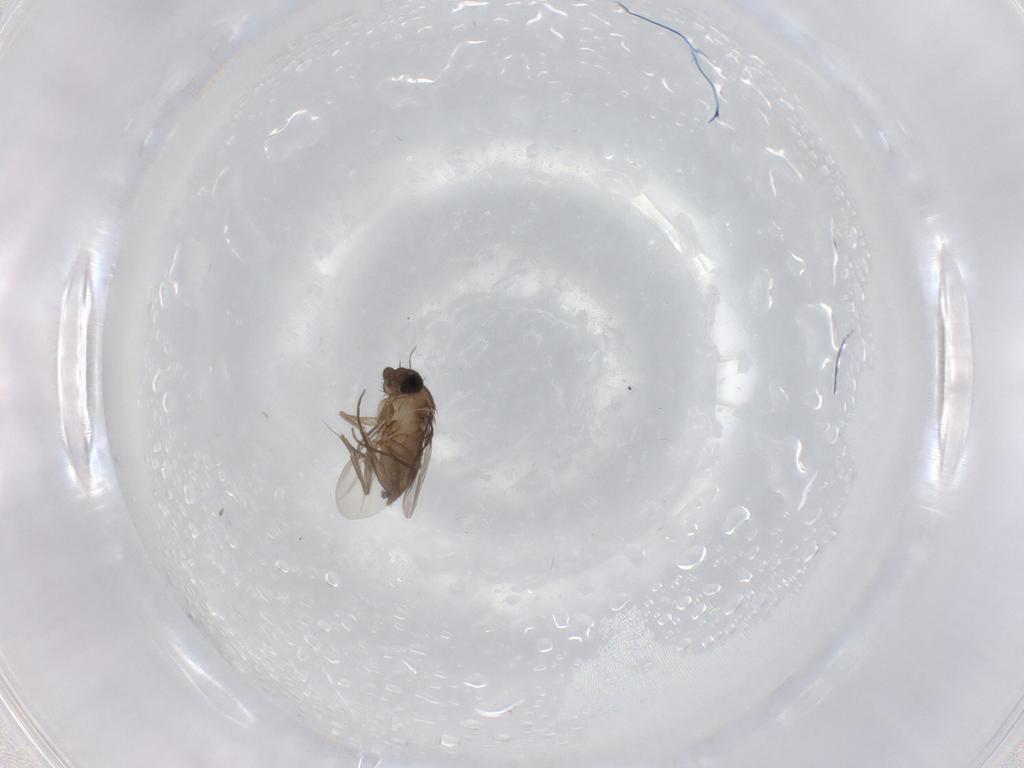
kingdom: Animalia
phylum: Arthropoda
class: Insecta
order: Diptera
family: Phoridae
